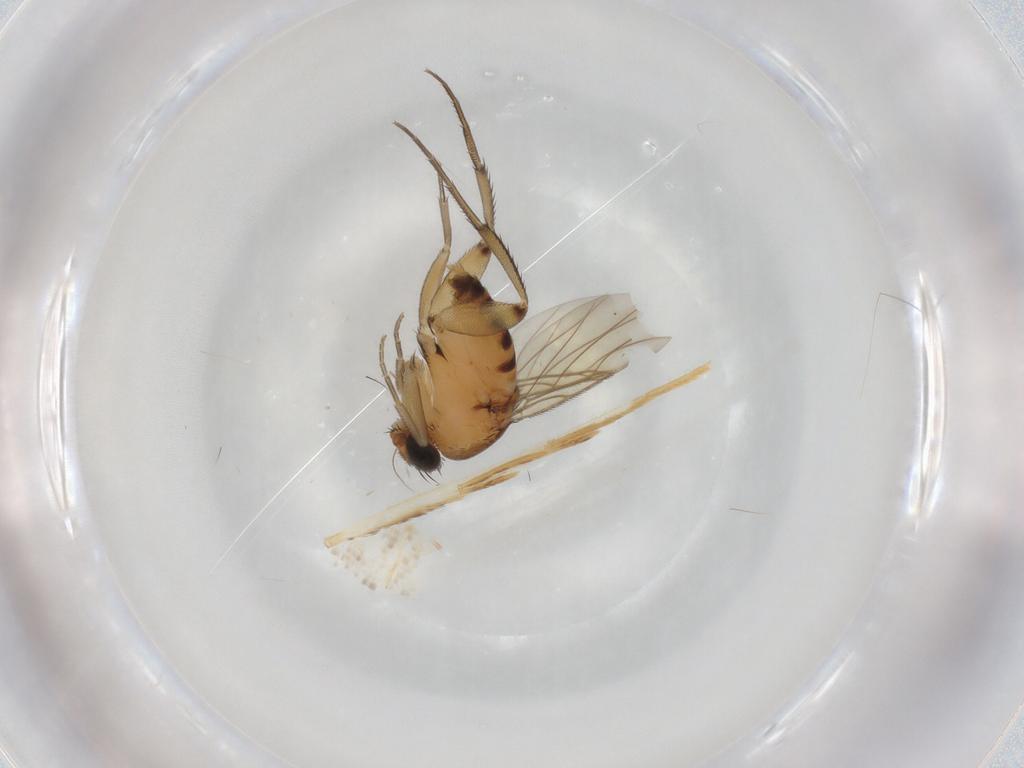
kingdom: Animalia
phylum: Arthropoda
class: Insecta
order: Diptera
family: Phoridae
